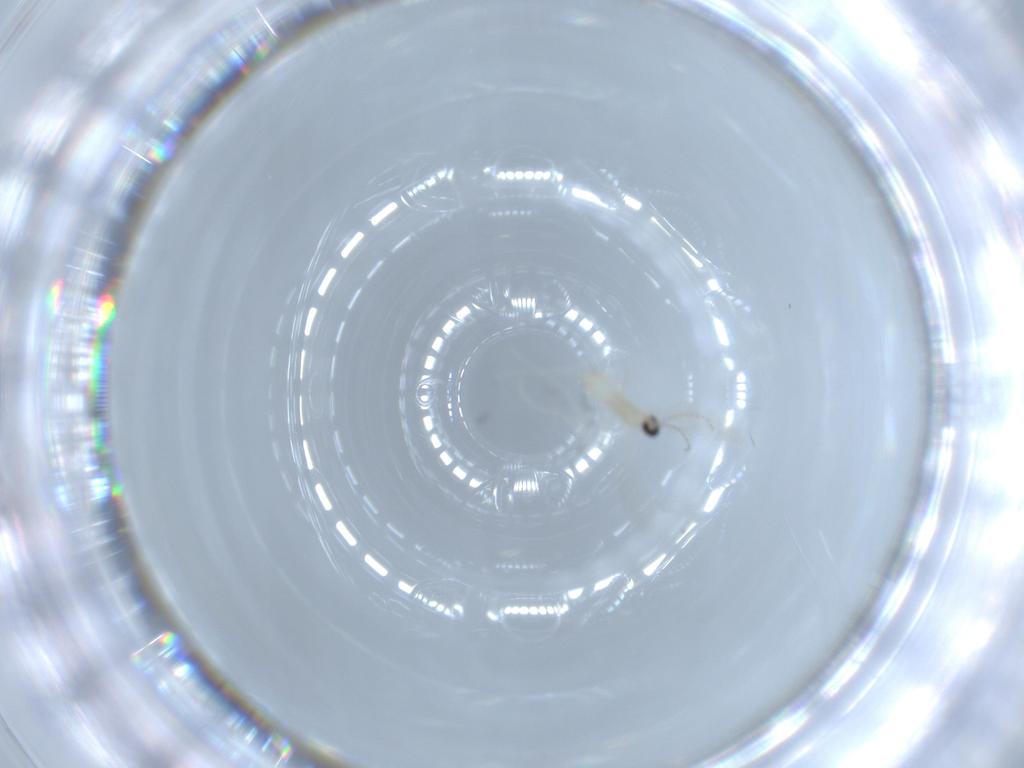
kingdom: Animalia
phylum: Arthropoda
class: Insecta
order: Diptera
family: Cecidomyiidae
